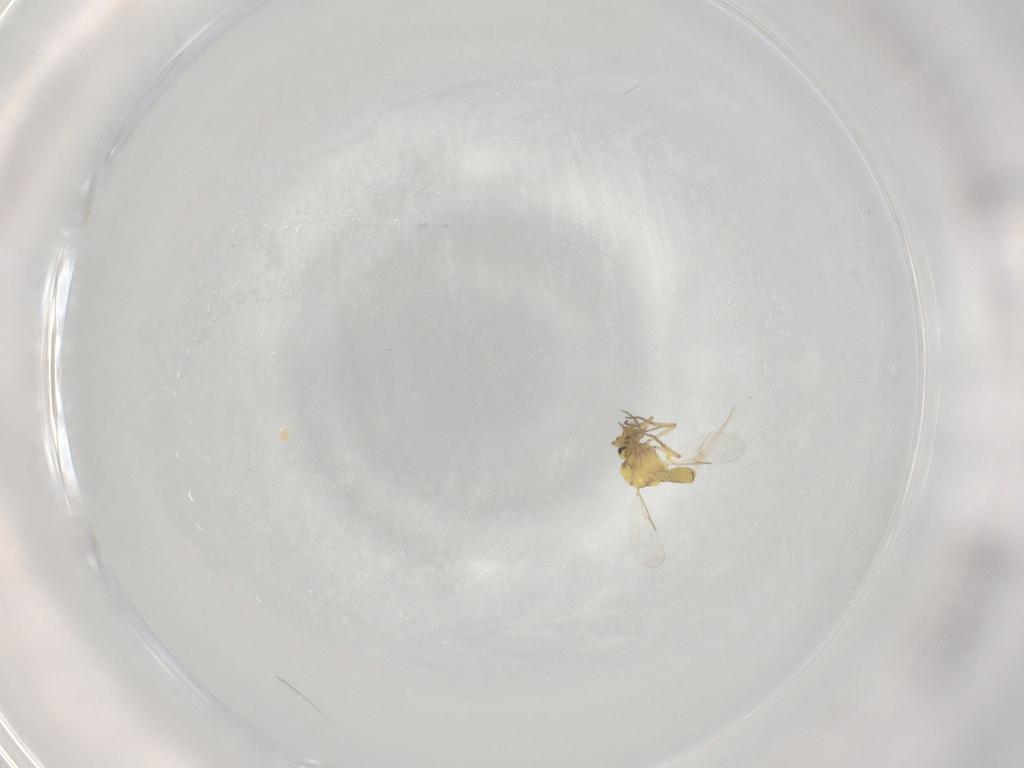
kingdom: Animalia
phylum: Arthropoda
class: Insecta
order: Diptera
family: Ceratopogonidae
